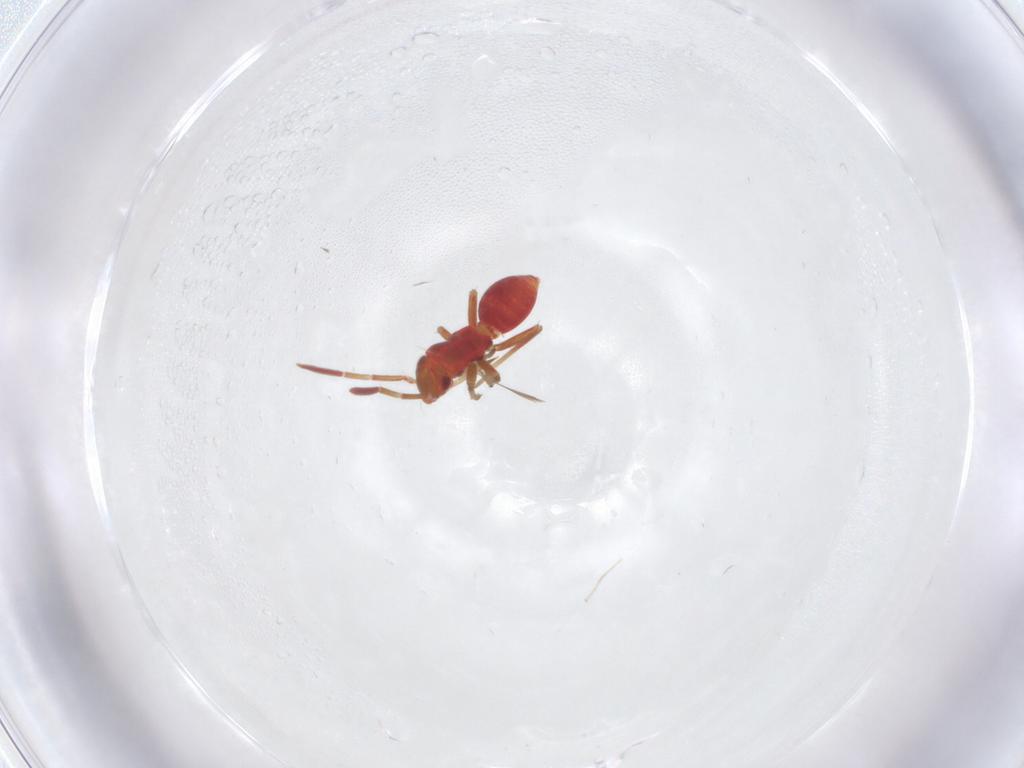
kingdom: Animalia
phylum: Arthropoda
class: Insecta
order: Hemiptera
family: Miridae
